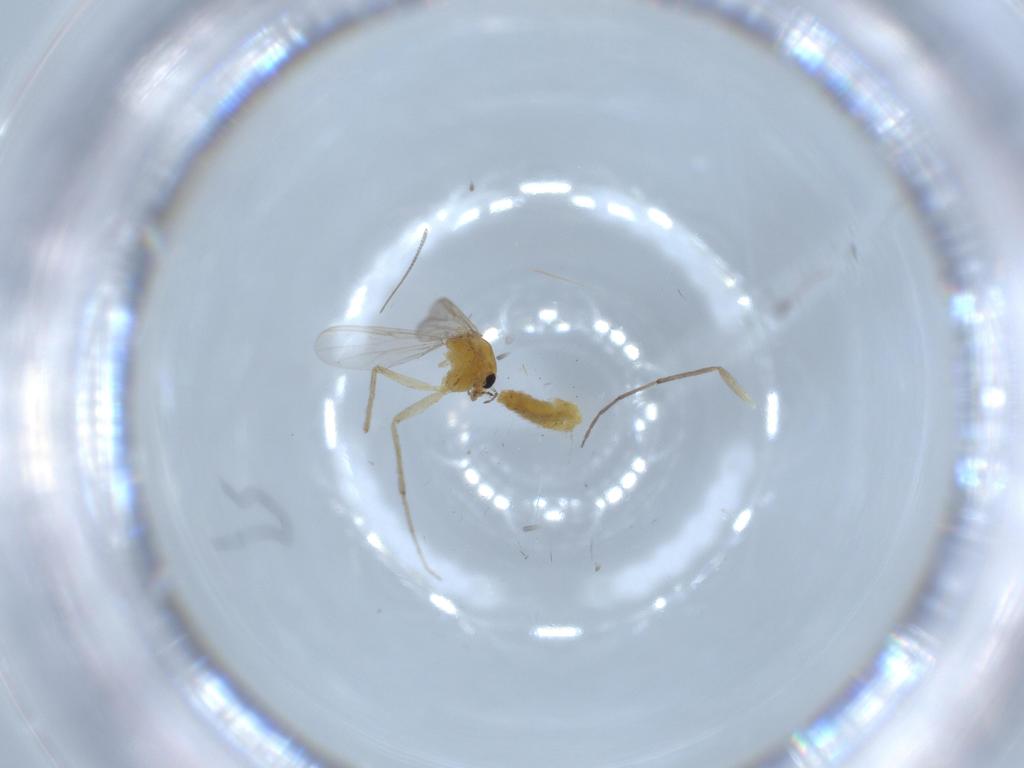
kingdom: Animalia
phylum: Arthropoda
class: Insecta
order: Diptera
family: Chironomidae
